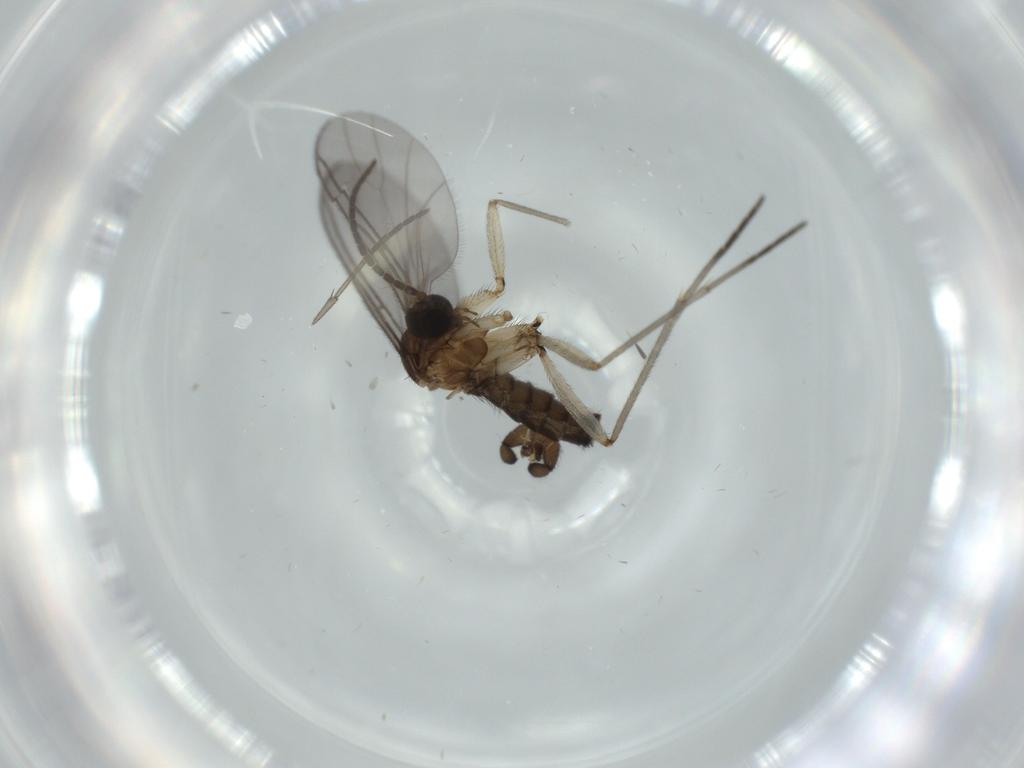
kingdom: Animalia
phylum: Arthropoda
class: Insecta
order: Diptera
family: Sciaridae
